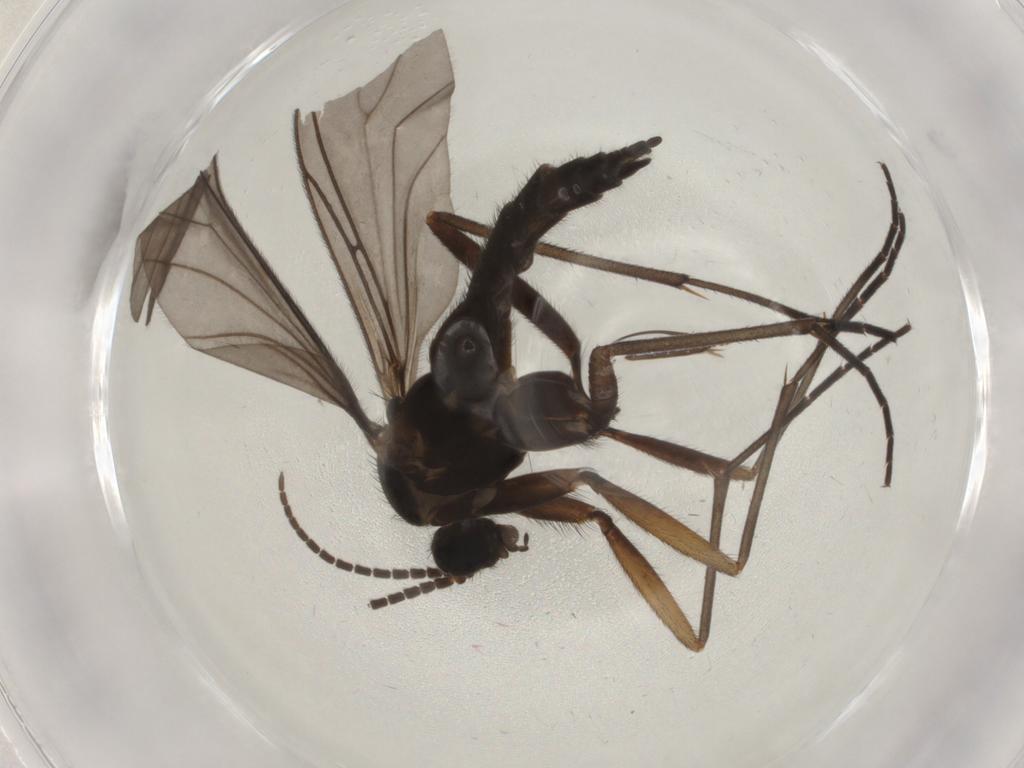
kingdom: Animalia
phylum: Arthropoda
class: Insecta
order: Diptera
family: Sciaridae
